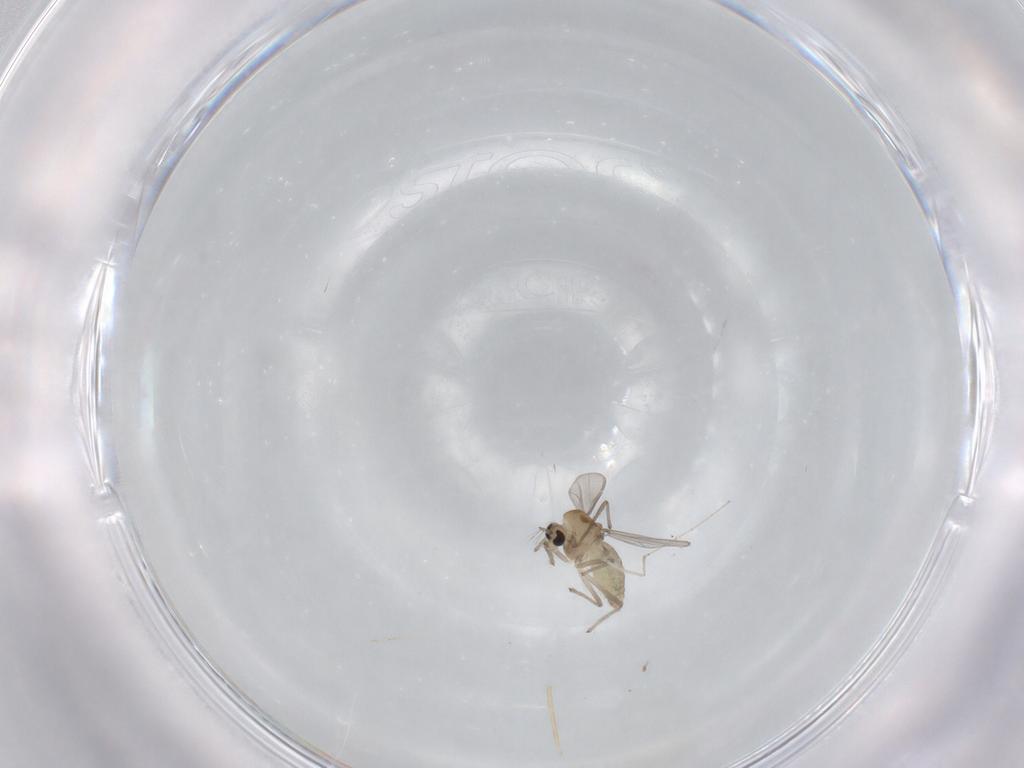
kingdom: Animalia
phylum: Arthropoda
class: Insecta
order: Diptera
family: Chironomidae
